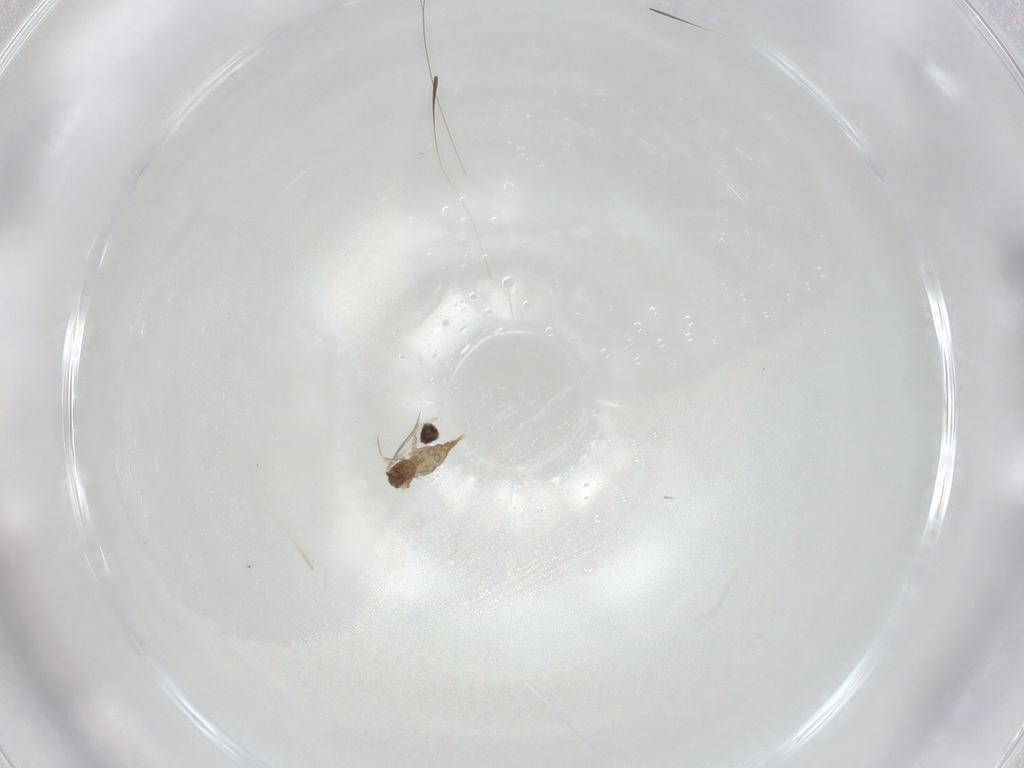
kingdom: Animalia
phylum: Arthropoda
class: Insecta
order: Diptera
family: Cecidomyiidae
